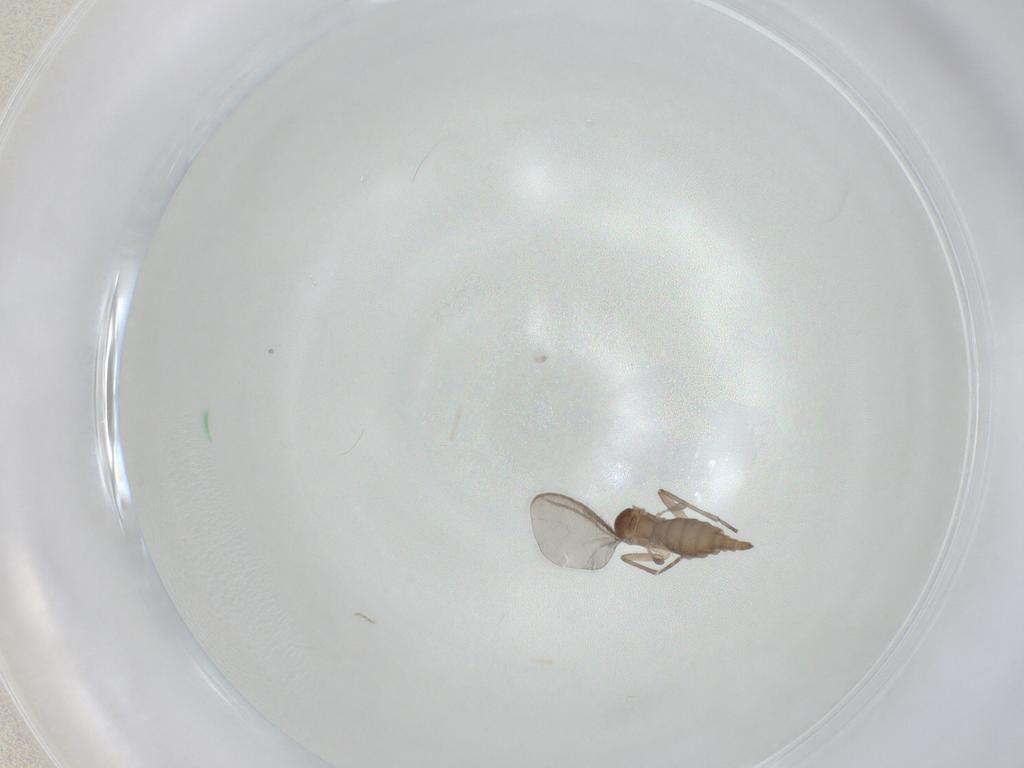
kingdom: Animalia
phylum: Arthropoda
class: Insecta
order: Diptera
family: Sciaridae
